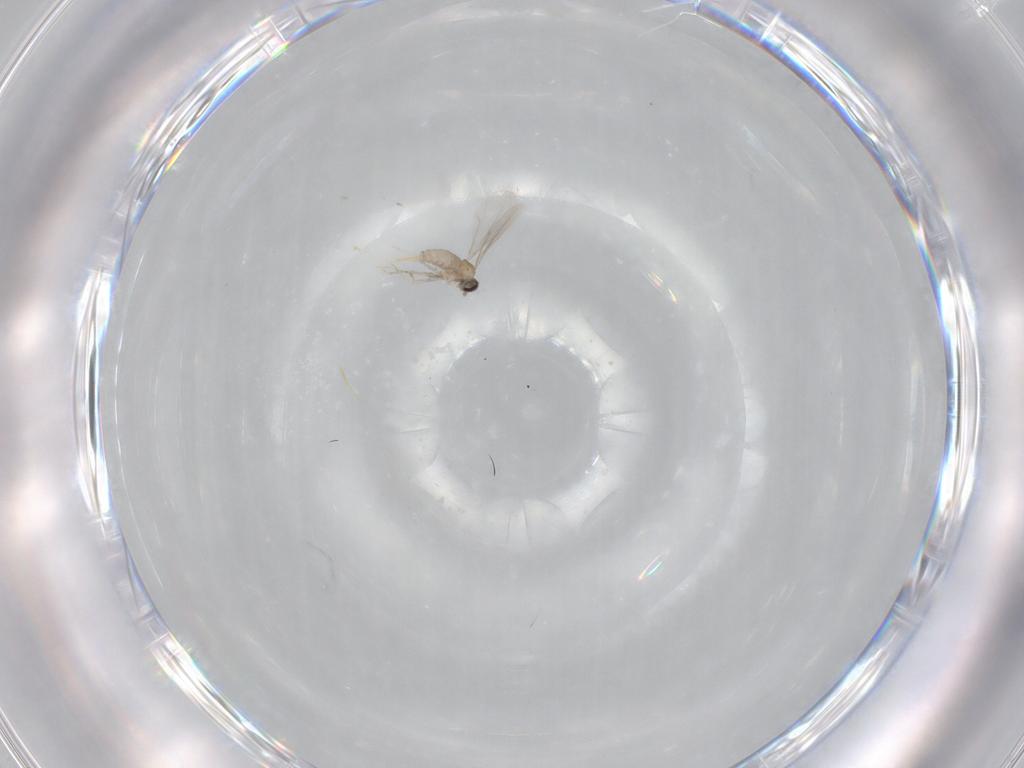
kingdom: Animalia
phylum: Arthropoda
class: Insecta
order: Diptera
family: Cecidomyiidae
